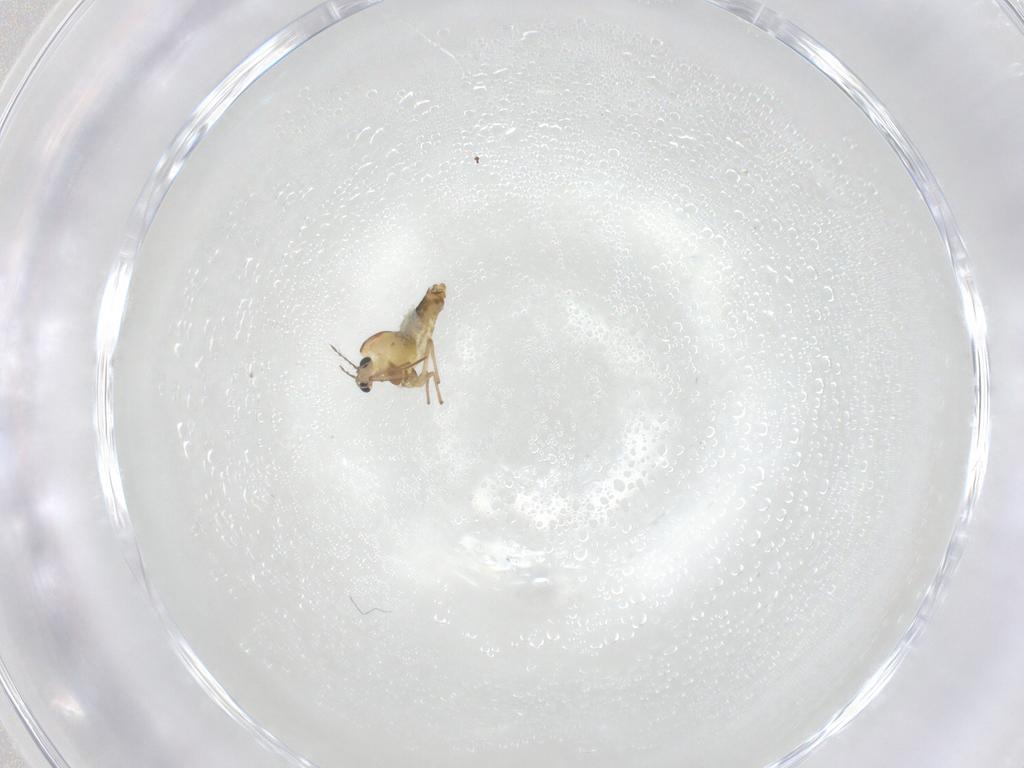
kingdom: Animalia
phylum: Arthropoda
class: Insecta
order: Diptera
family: Chironomidae
